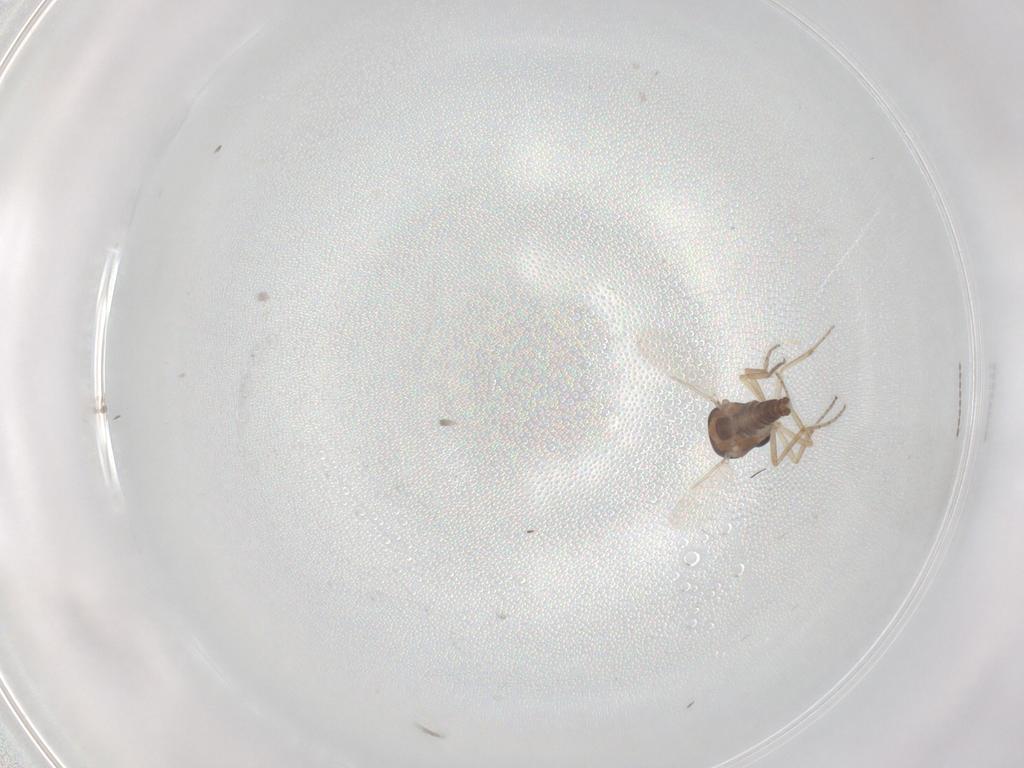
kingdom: Animalia
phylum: Arthropoda
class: Insecta
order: Diptera
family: Ceratopogonidae
